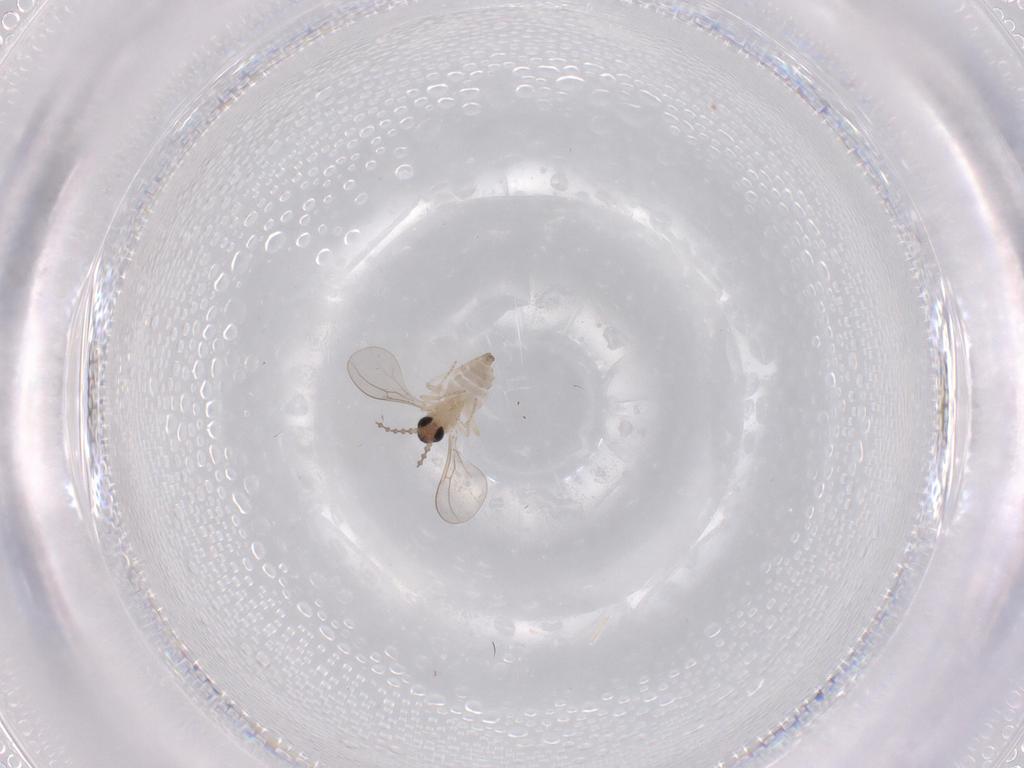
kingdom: Animalia
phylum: Arthropoda
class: Insecta
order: Diptera
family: Cecidomyiidae
